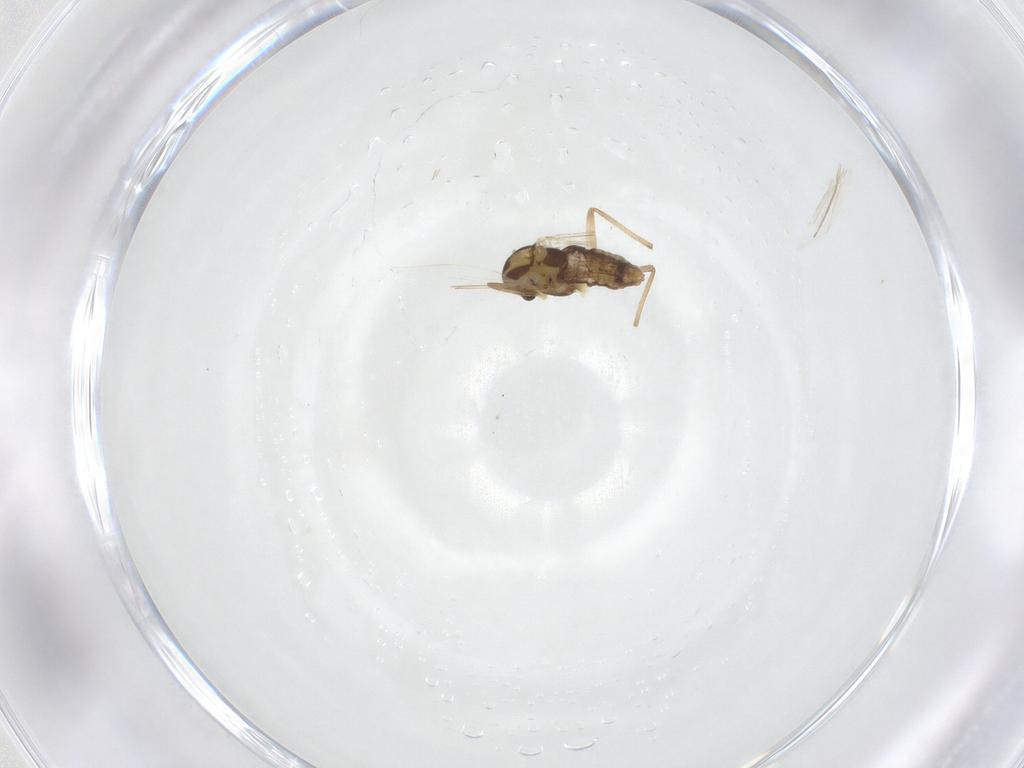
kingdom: Animalia
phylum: Arthropoda
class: Insecta
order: Diptera
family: Chironomidae
